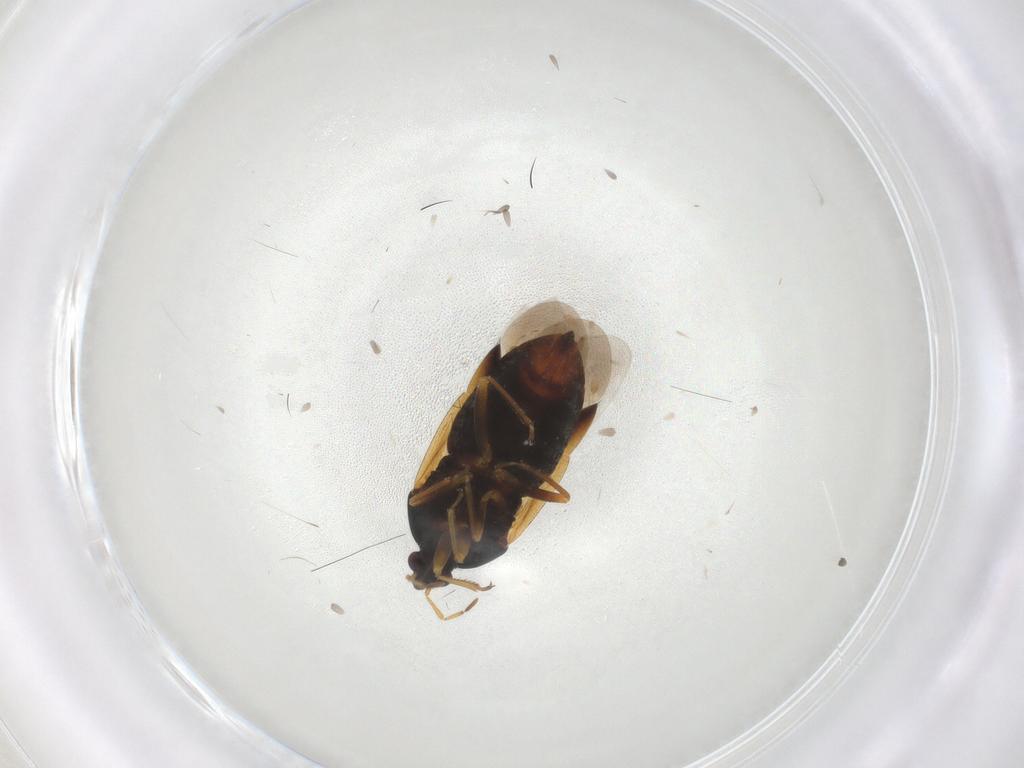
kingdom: Animalia
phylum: Arthropoda
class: Insecta
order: Hemiptera
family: Anthocoridae
